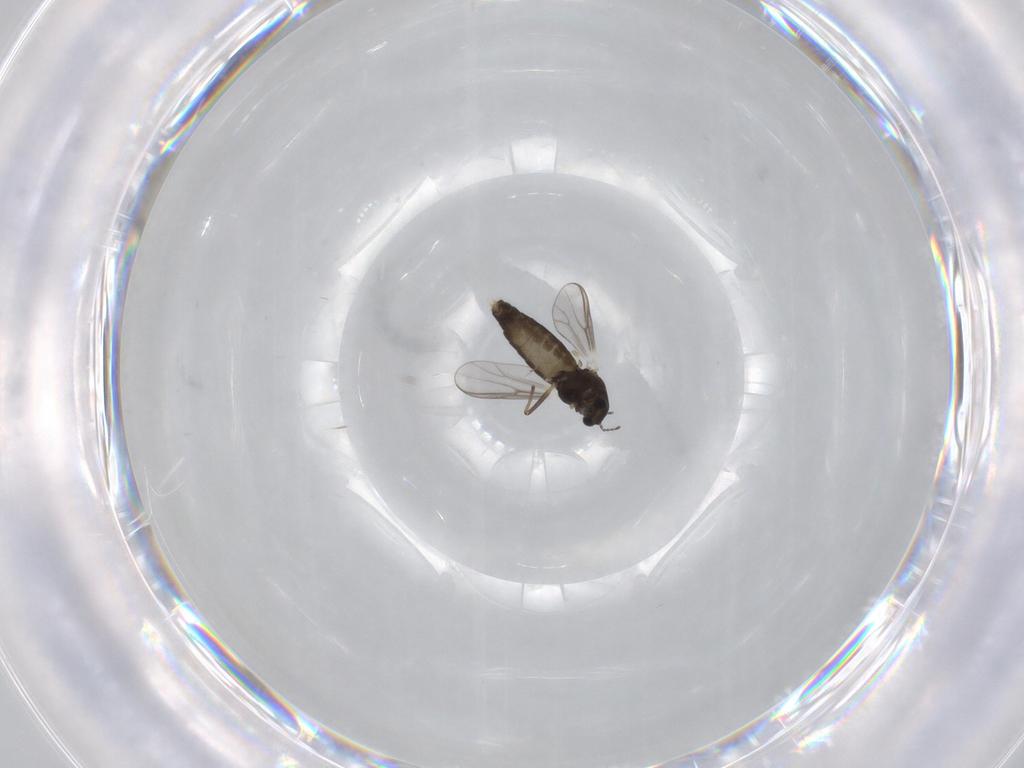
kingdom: Animalia
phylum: Arthropoda
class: Insecta
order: Diptera
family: Chironomidae
